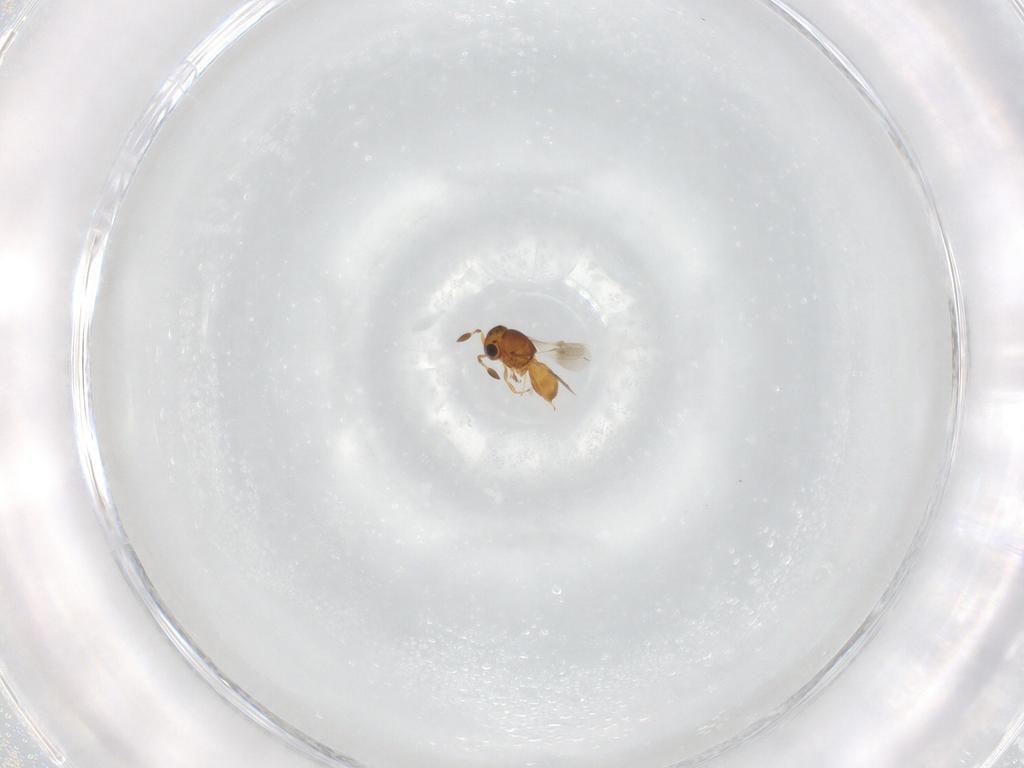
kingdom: Animalia
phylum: Arthropoda
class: Insecta
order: Hymenoptera
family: Scelionidae
